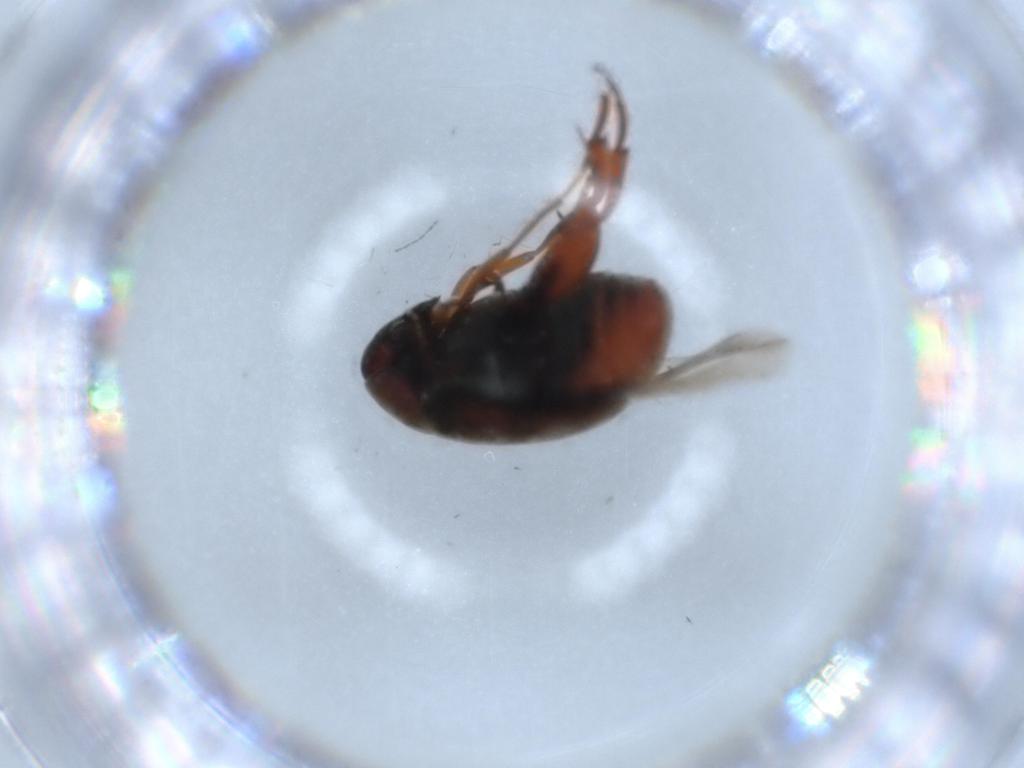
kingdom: Animalia
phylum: Arthropoda
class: Insecta
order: Coleoptera
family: Chrysomelidae
